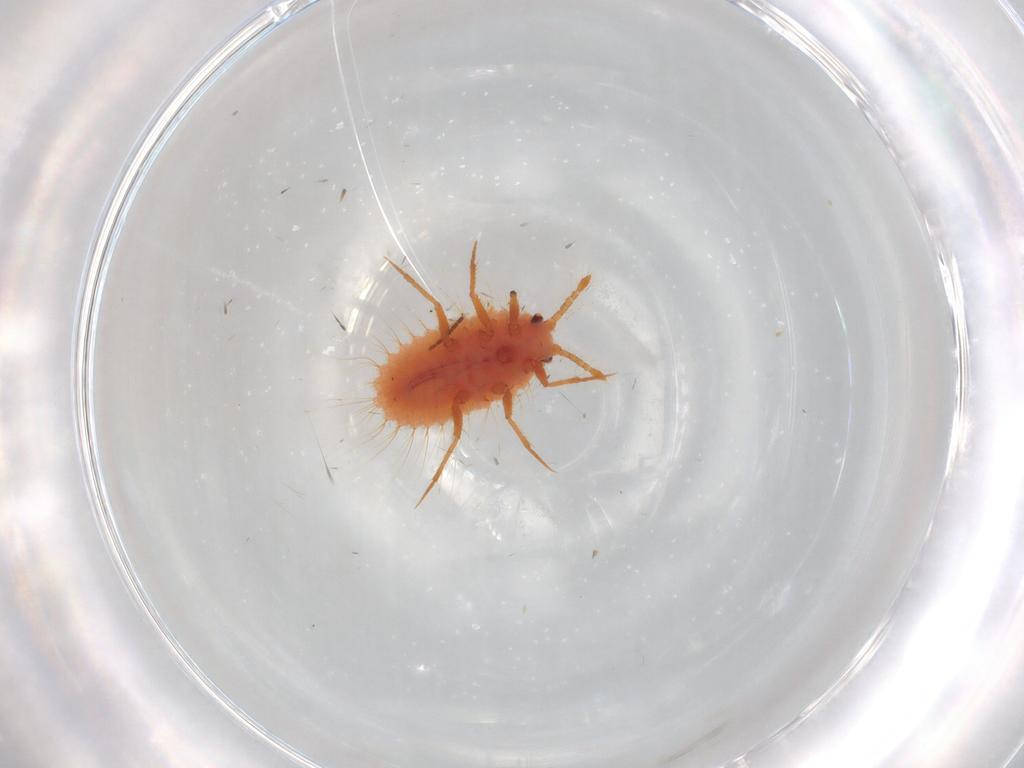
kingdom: Animalia
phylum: Arthropoda
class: Insecta
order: Hemiptera
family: Coccoidea_incertae_sedis
